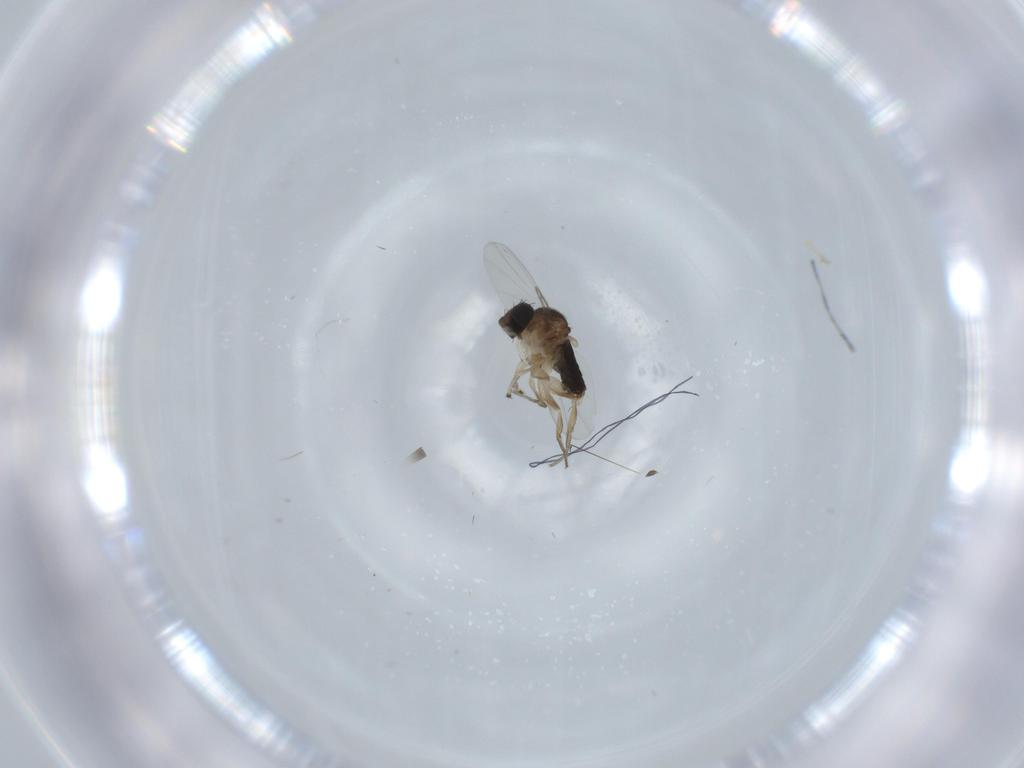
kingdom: Animalia
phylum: Arthropoda
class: Insecta
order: Diptera
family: Phoridae
